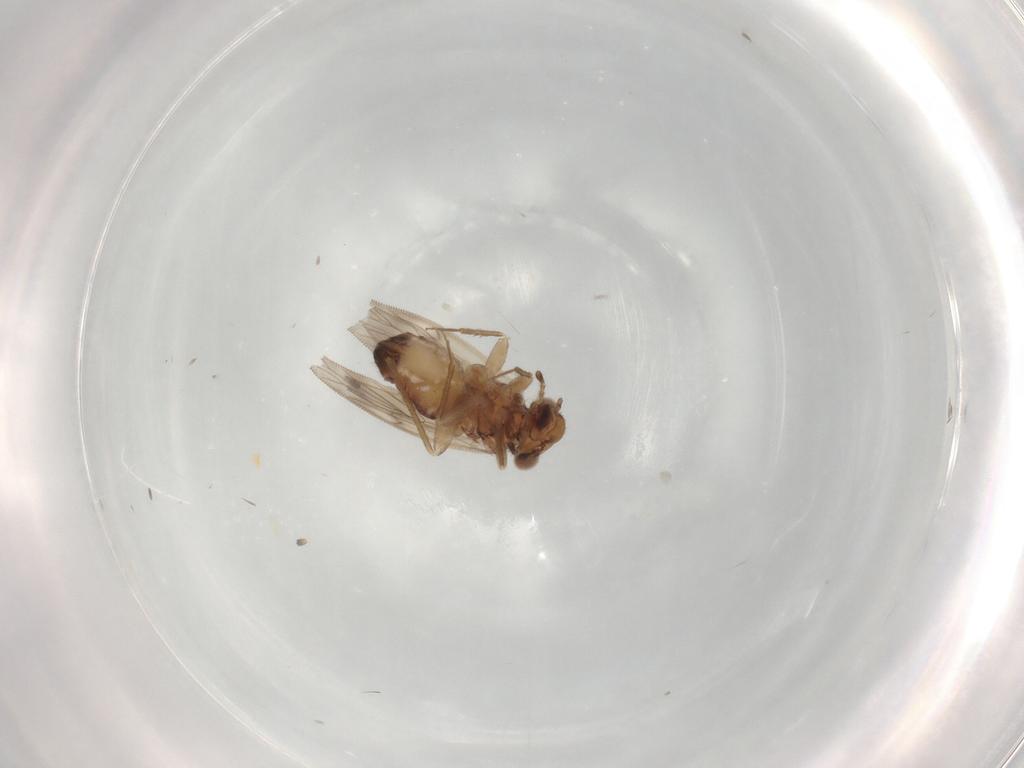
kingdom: Animalia
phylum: Arthropoda
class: Insecta
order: Psocodea
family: Lepidopsocidae
